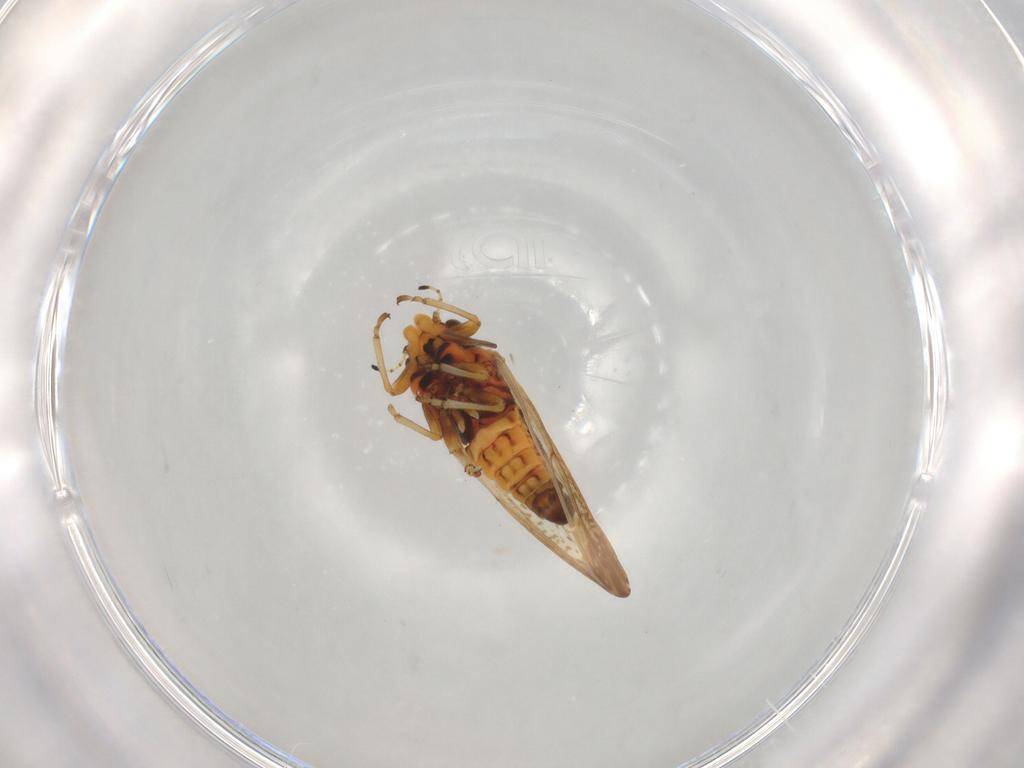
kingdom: Animalia
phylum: Arthropoda
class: Insecta
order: Hemiptera
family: Cicadellidae
